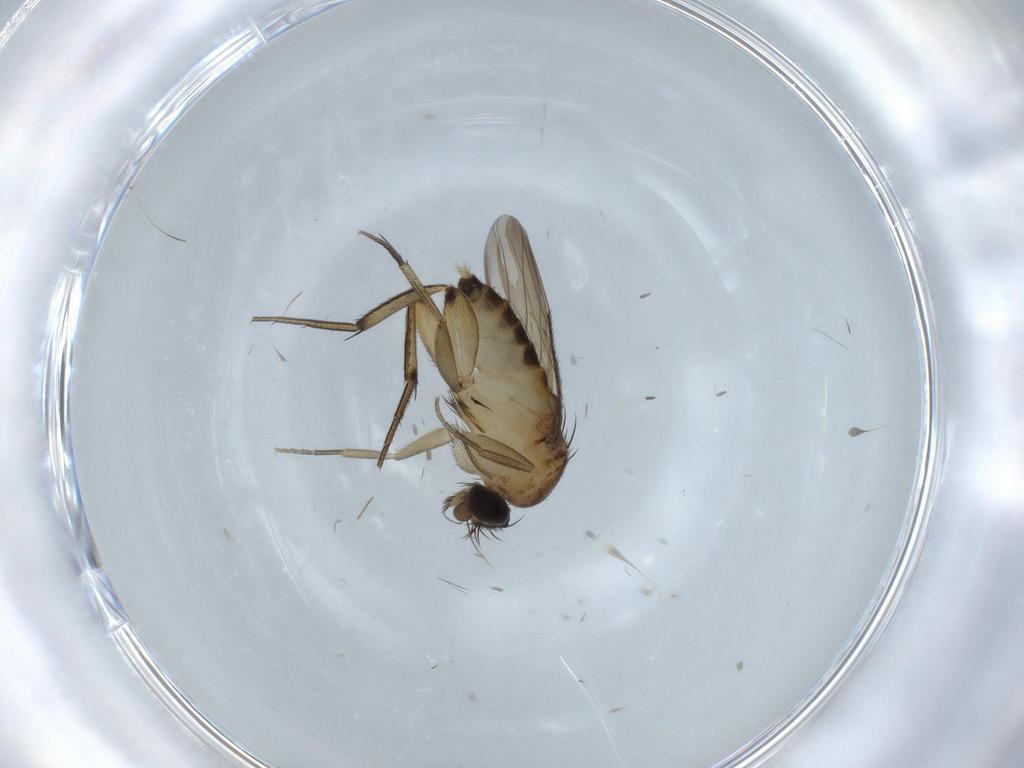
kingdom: Animalia
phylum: Arthropoda
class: Insecta
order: Diptera
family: Phoridae
